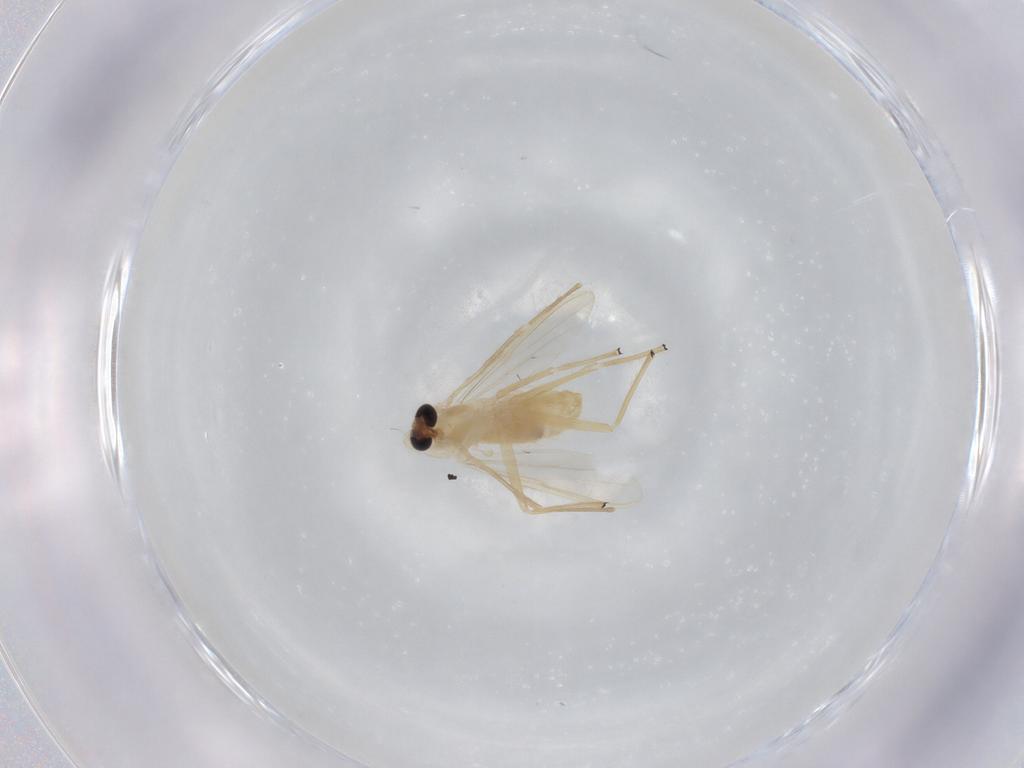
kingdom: Animalia
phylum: Arthropoda
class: Insecta
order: Diptera
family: Chironomidae
